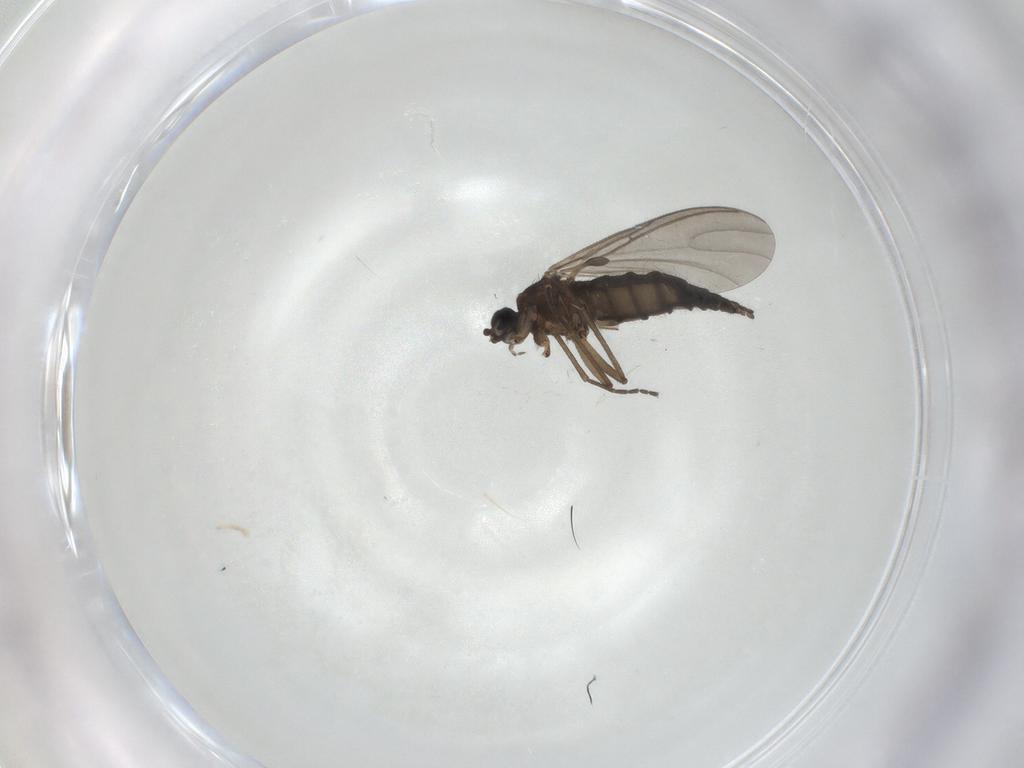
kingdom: Animalia
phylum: Arthropoda
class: Insecta
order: Diptera
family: Sciaridae
